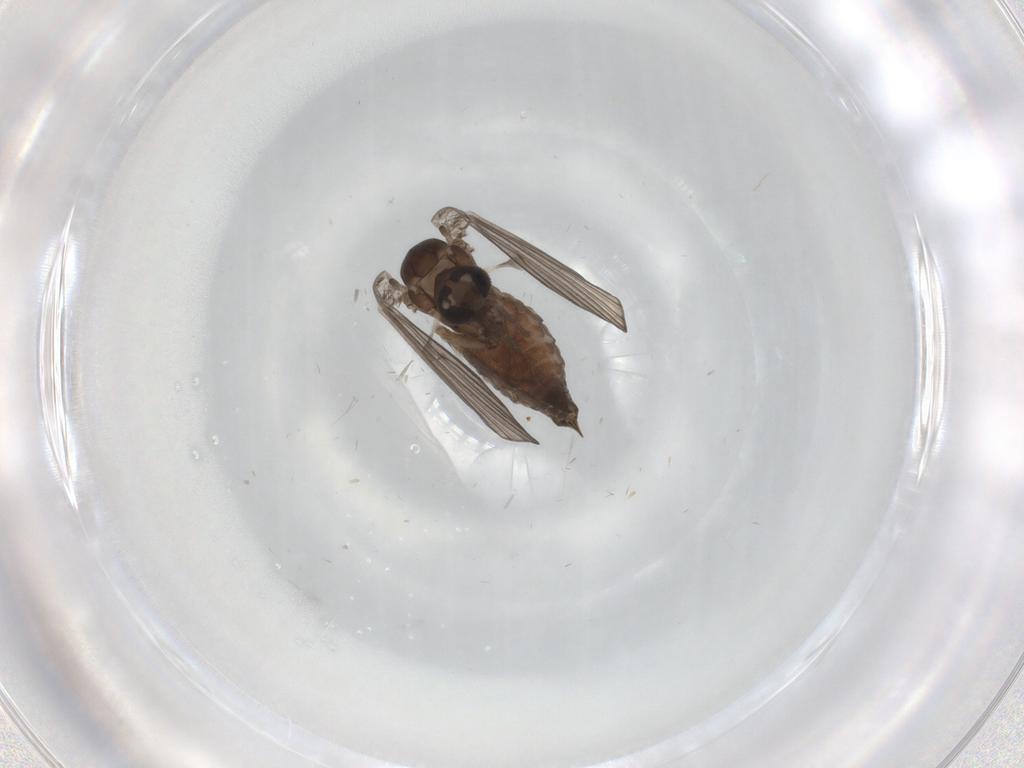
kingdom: Animalia
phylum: Arthropoda
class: Insecta
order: Diptera
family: Psychodidae
